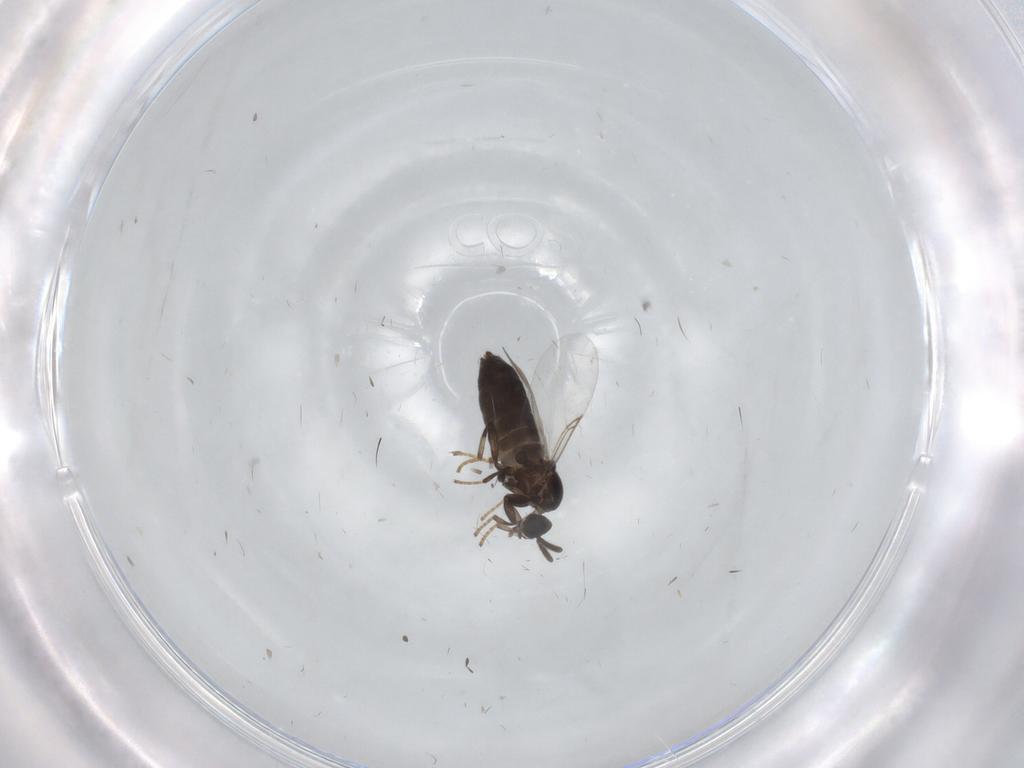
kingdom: Animalia
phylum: Arthropoda
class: Insecta
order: Diptera
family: Scatopsidae
